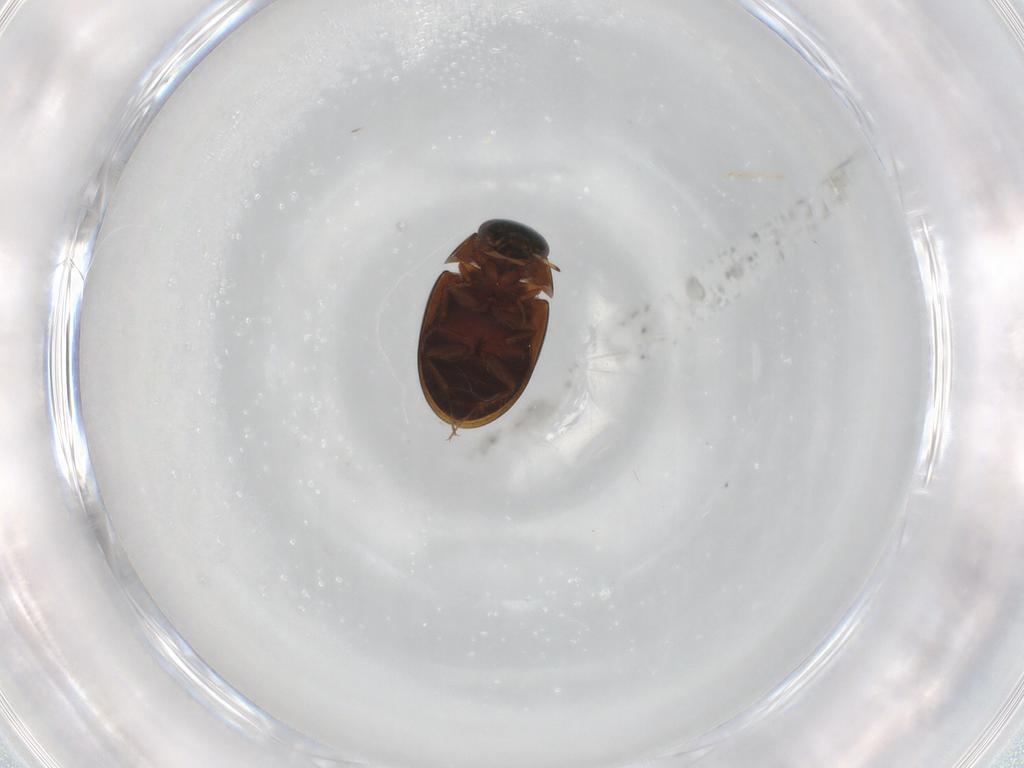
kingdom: Animalia
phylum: Arthropoda
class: Insecta
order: Coleoptera
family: Hydrophilidae
